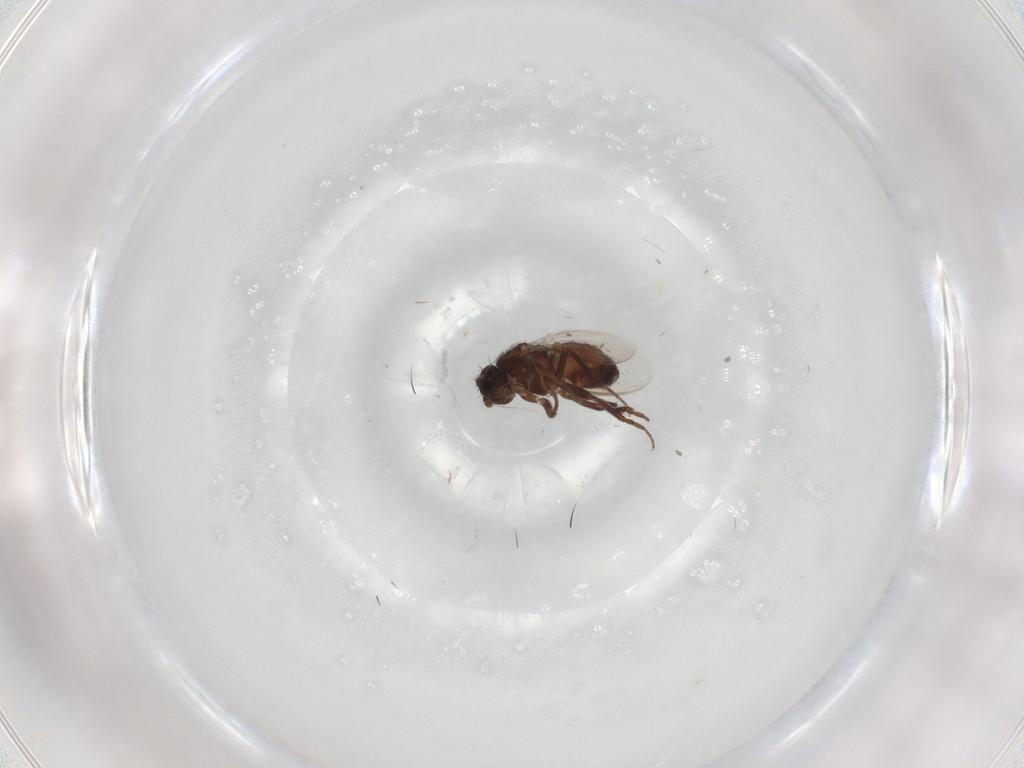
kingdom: Animalia
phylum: Arthropoda
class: Insecta
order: Diptera
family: Sphaeroceridae
